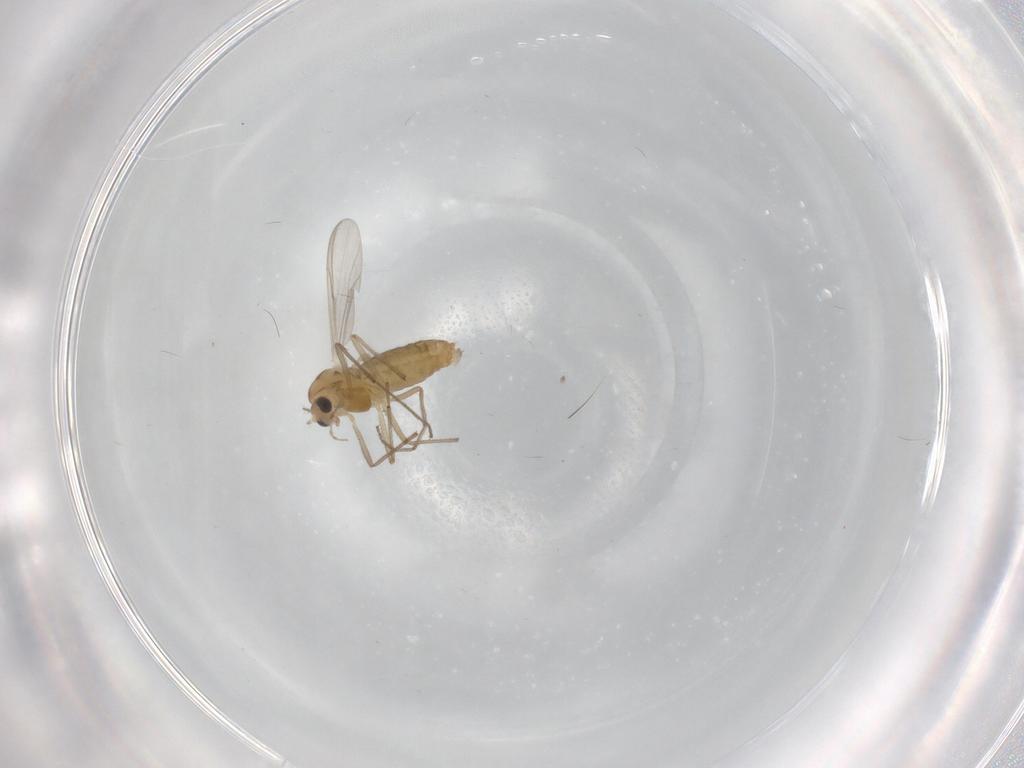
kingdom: Animalia
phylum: Arthropoda
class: Insecta
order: Diptera
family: Chironomidae
